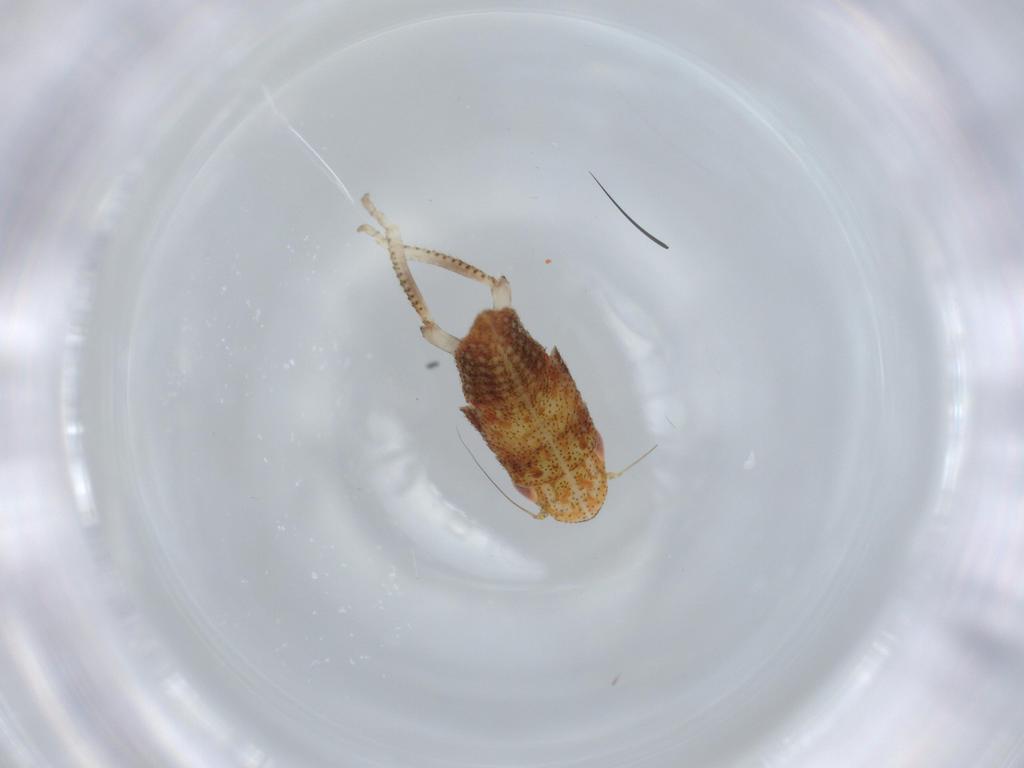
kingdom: Animalia
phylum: Arthropoda
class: Insecta
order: Hemiptera
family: Cicadellidae
